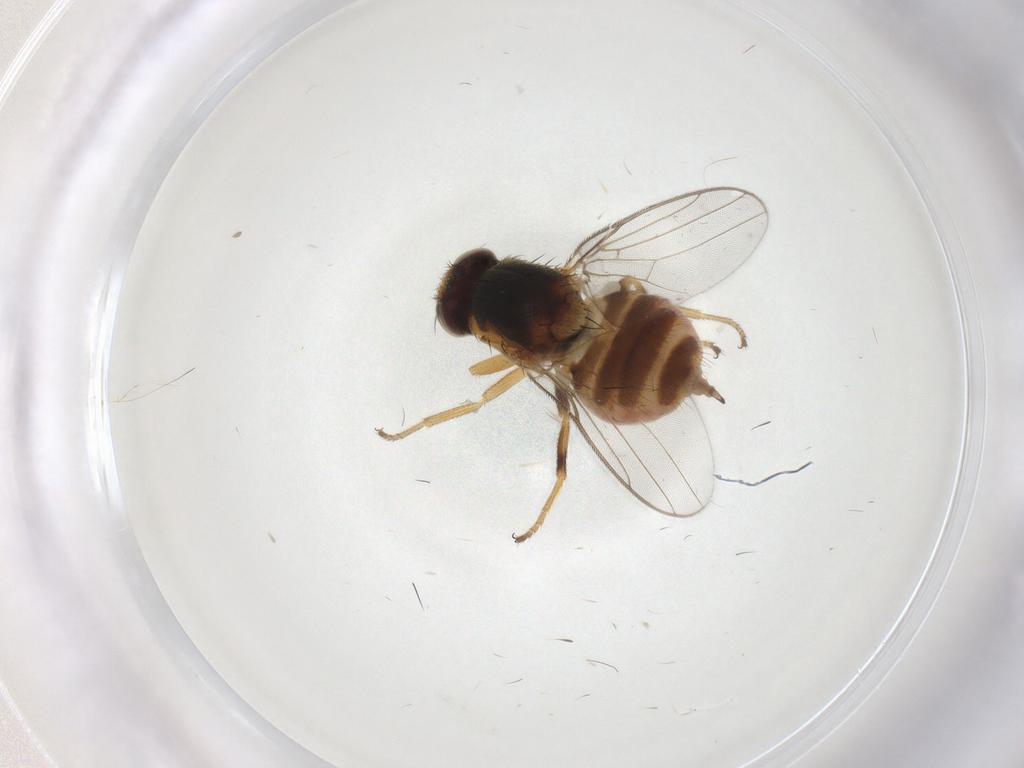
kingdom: Animalia
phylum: Arthropoda
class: Insecta
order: Diptera
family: Chloropidae
